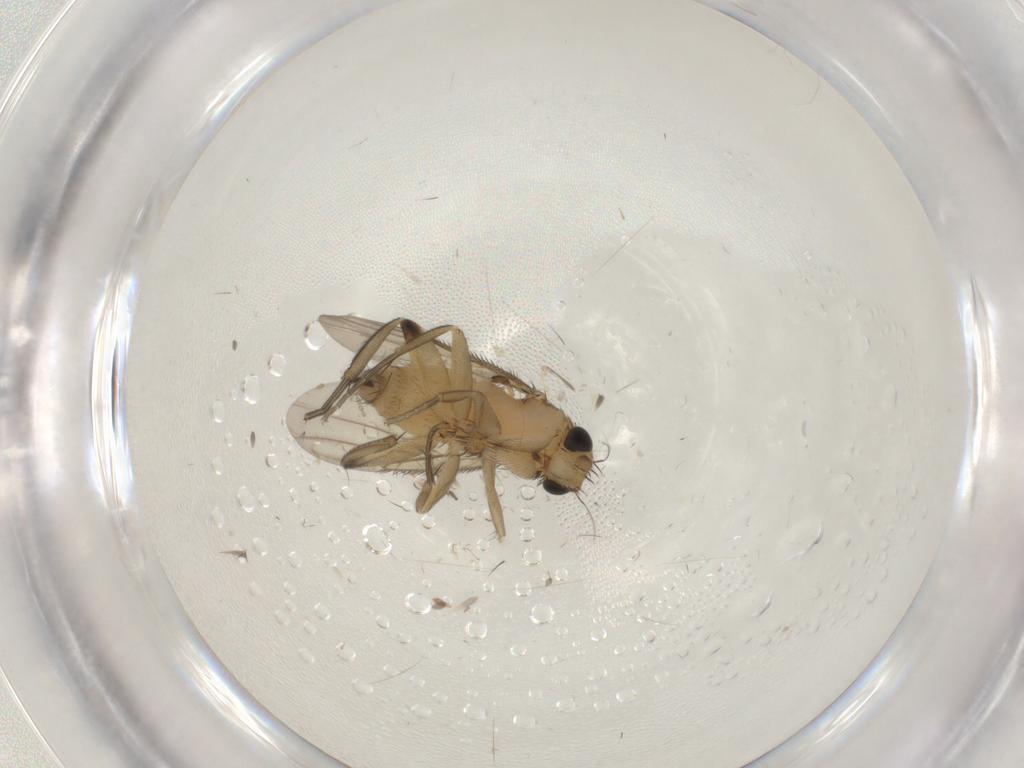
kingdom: Animalia
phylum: Arthropoda
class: Insecta
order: Diptera
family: Phoridae
